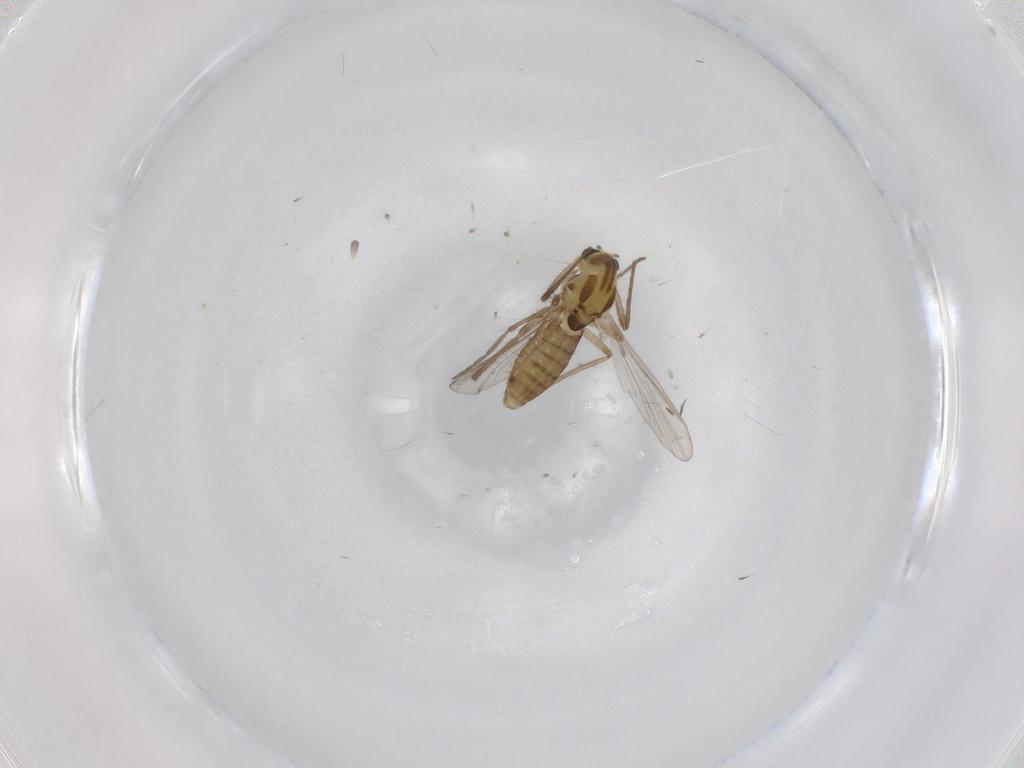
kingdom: Animalia
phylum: Arthropoda
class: Insecta
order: Diptera
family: Chironomidae
